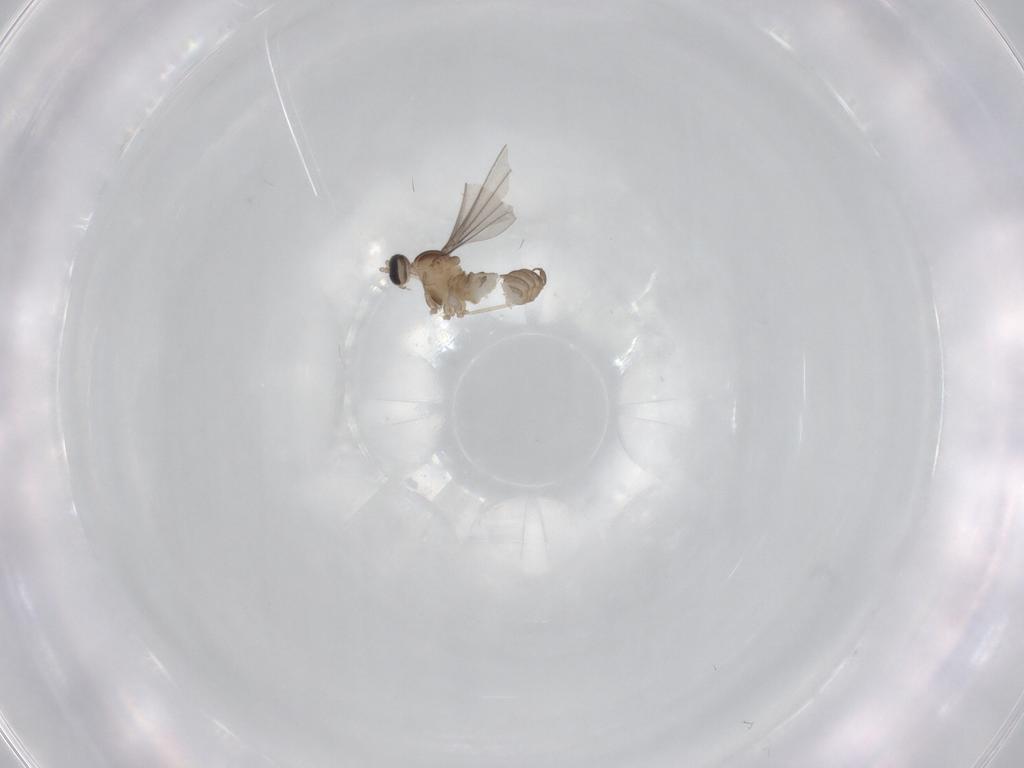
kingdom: Animalia
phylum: Arthropoda
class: Insecta
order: Diptera
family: Cecidomyiidae
